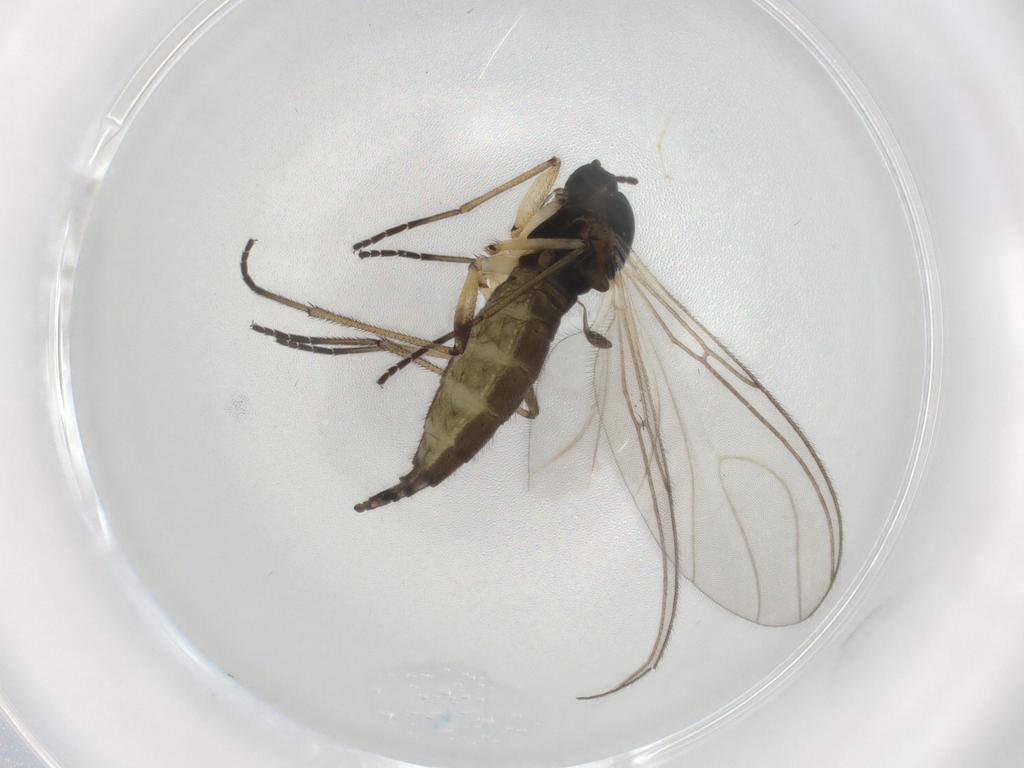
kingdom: Animalia
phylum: Arthropoda
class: Insecta
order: Diptera
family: Sciaridae
